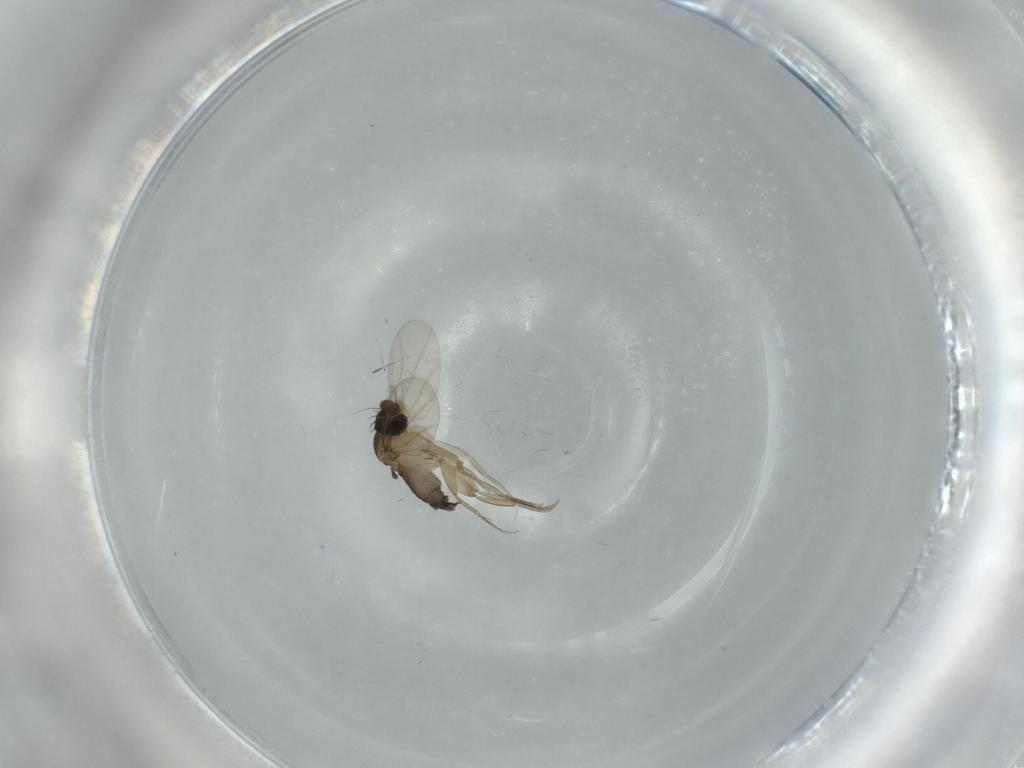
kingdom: Animalia
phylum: Arthropoda
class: Insecta
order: Diptera
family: Phoridae
